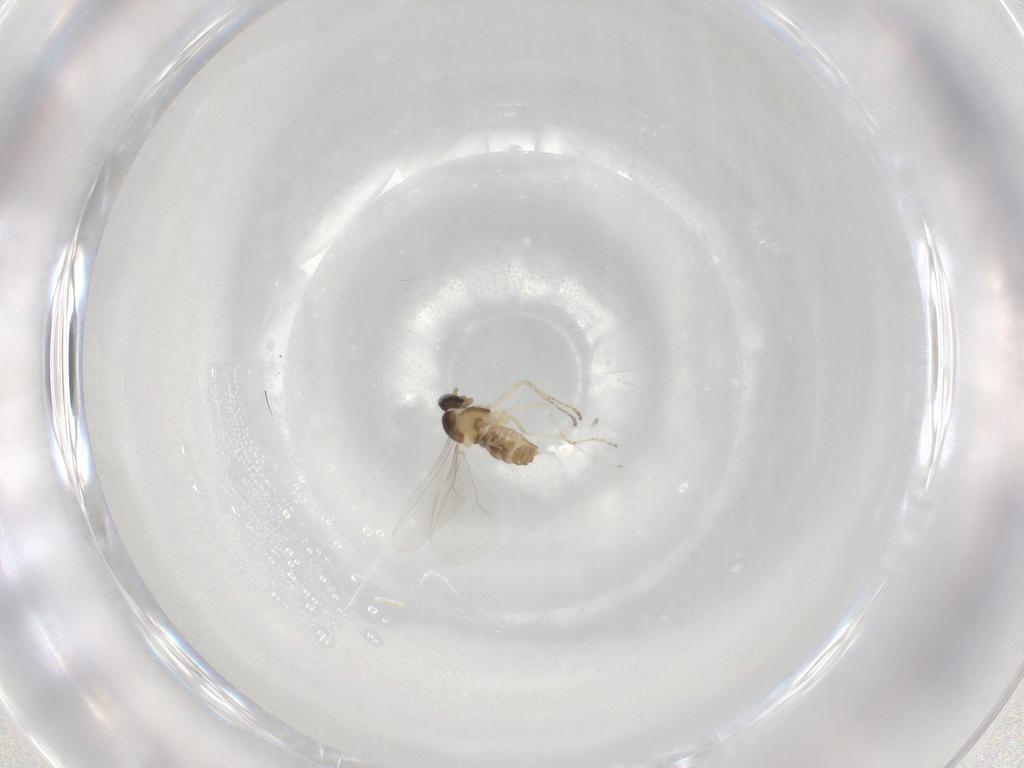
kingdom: Animalia
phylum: Arthropoda
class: Insecta
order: Diptera
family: Cecidomyiidae
